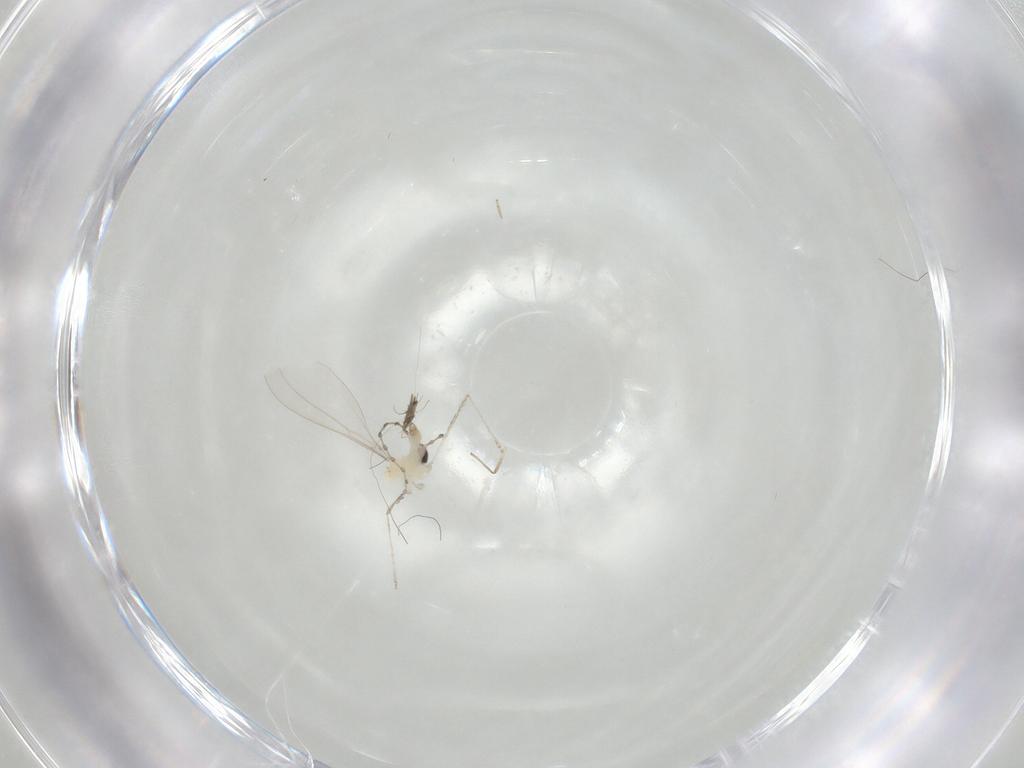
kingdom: Animalia
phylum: Arthropoda
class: Insecta
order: Diptera
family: Cecidomyiidae
